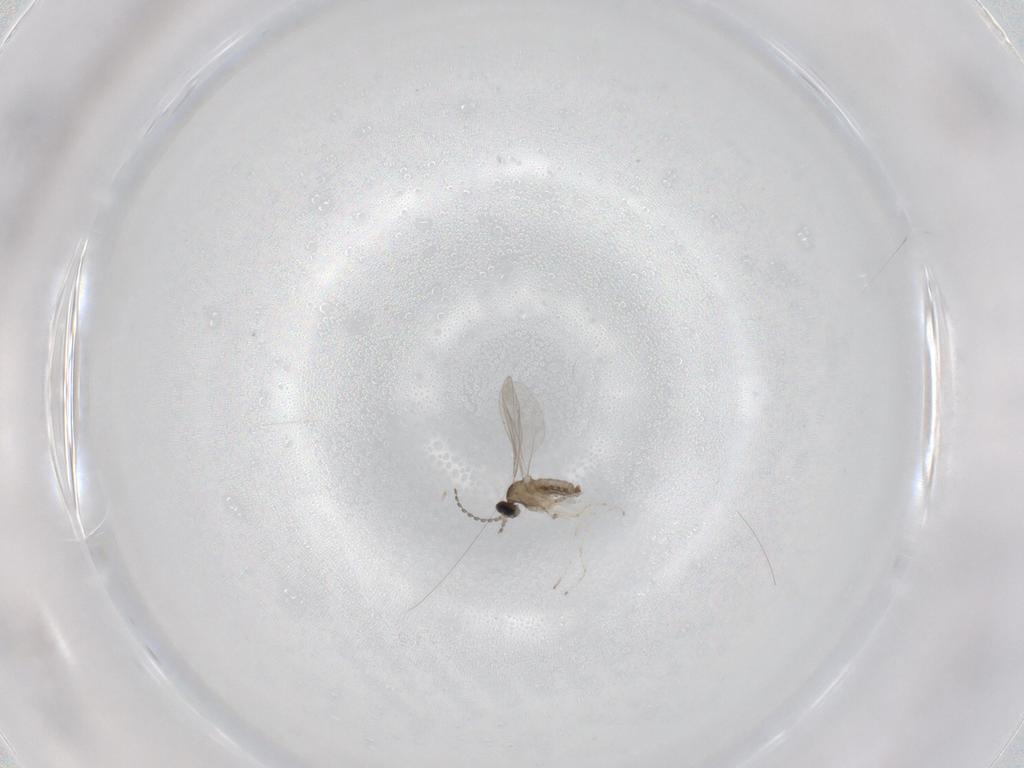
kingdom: Animalia
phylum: Arthropoda
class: Insecta
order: Diptera
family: Cecidomyiidae
